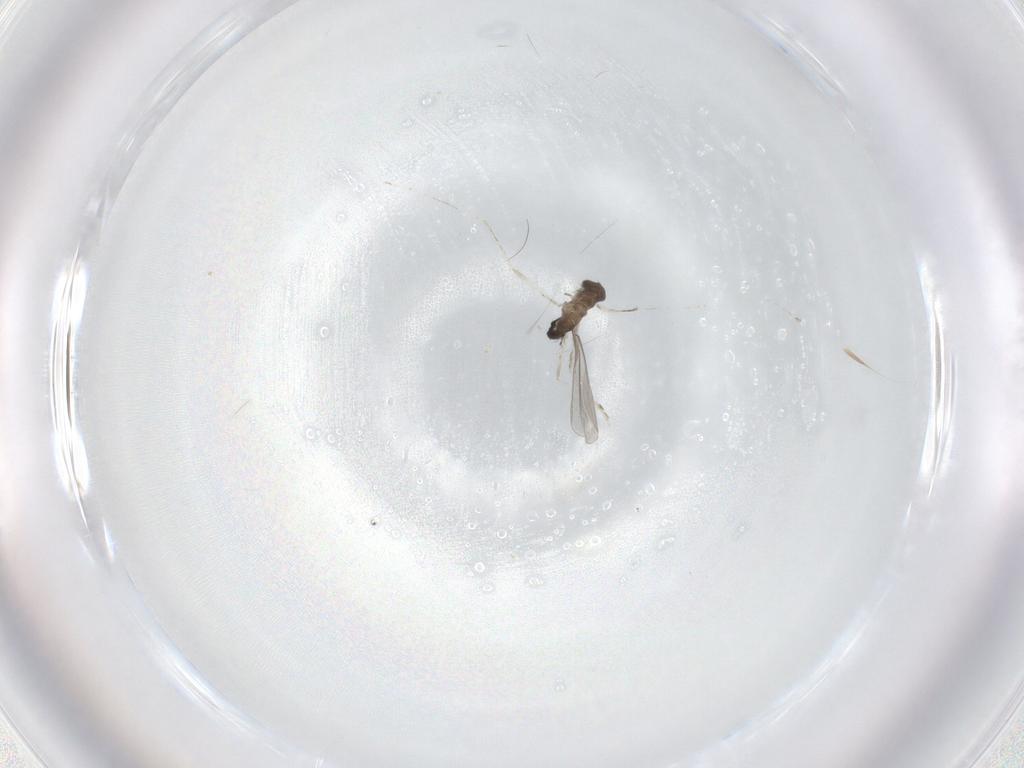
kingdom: Animalia
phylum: Arthropoda
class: Insecta
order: Diptera
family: Cecidomyiidae
